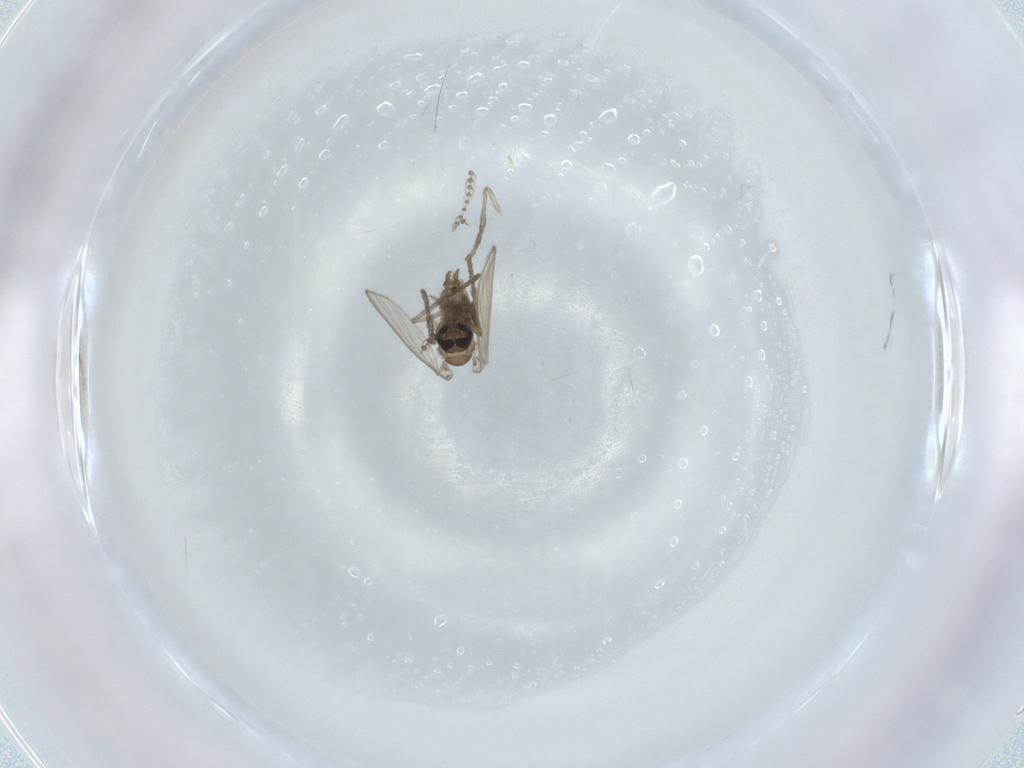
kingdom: Animalia
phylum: Arthropoda
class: Insecta
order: Diptera
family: Psychodidae
